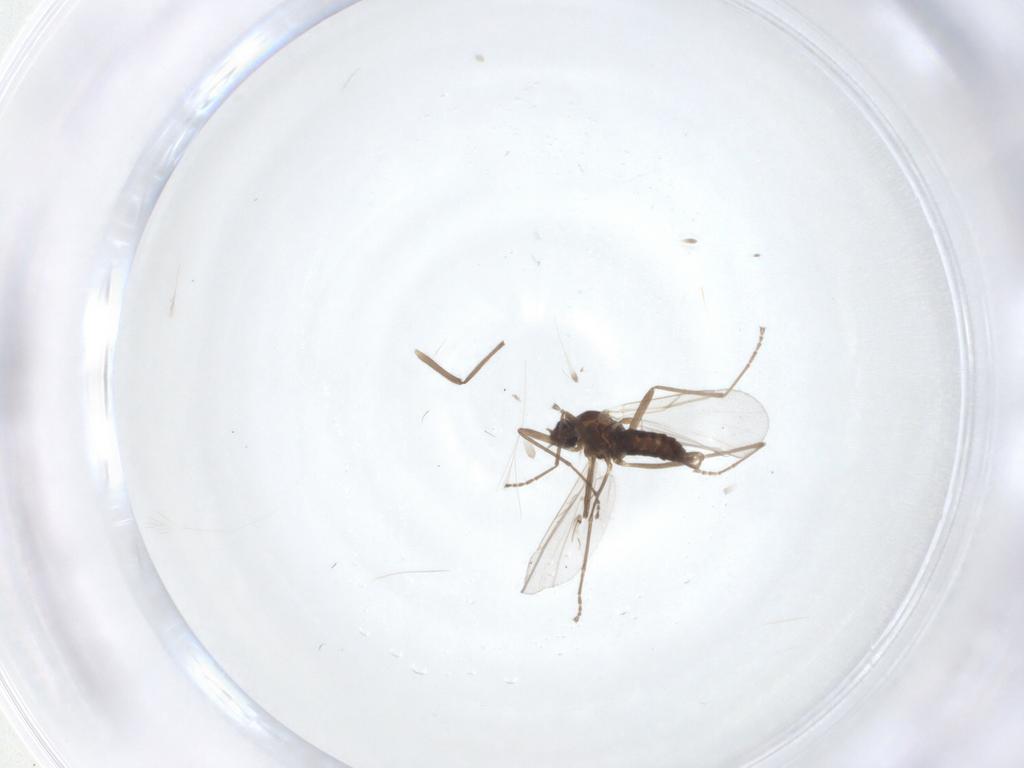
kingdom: Animalia
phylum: Arthropoda
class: Insecta
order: Diptera
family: Cecidomyiidae
